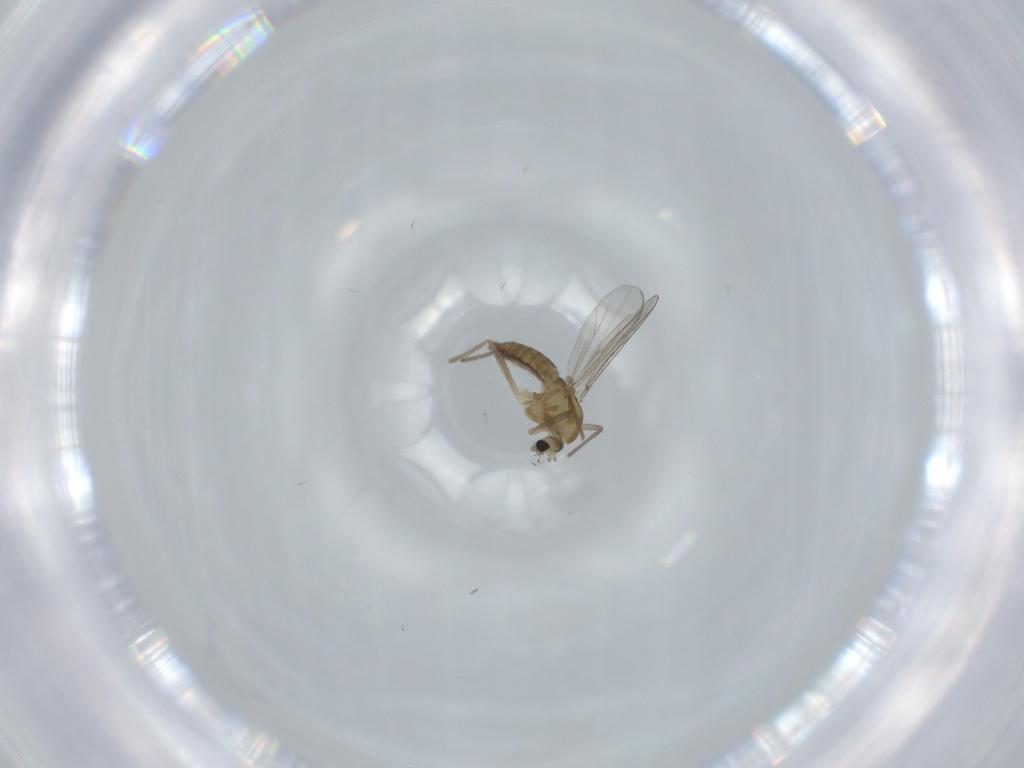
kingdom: Animalia
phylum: Arthropoda
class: Insecta
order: Diptera
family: Chironomidae
